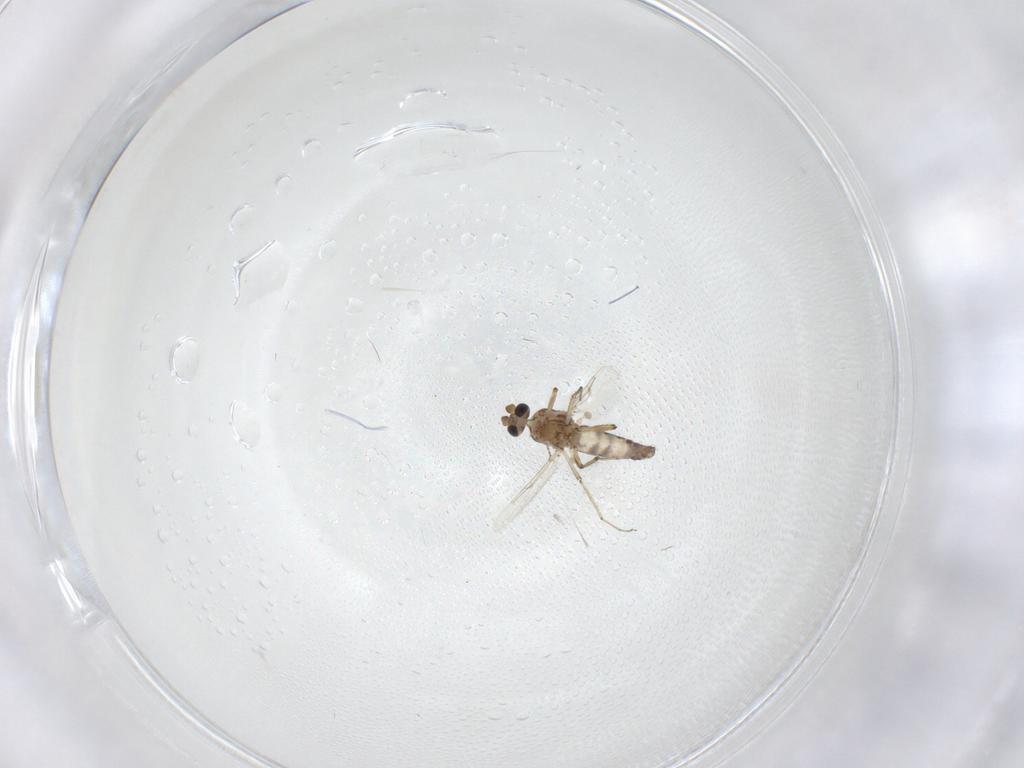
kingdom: Animalia
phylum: Arthropoda
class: Insecta
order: Diptera
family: Ceratopogonidae
